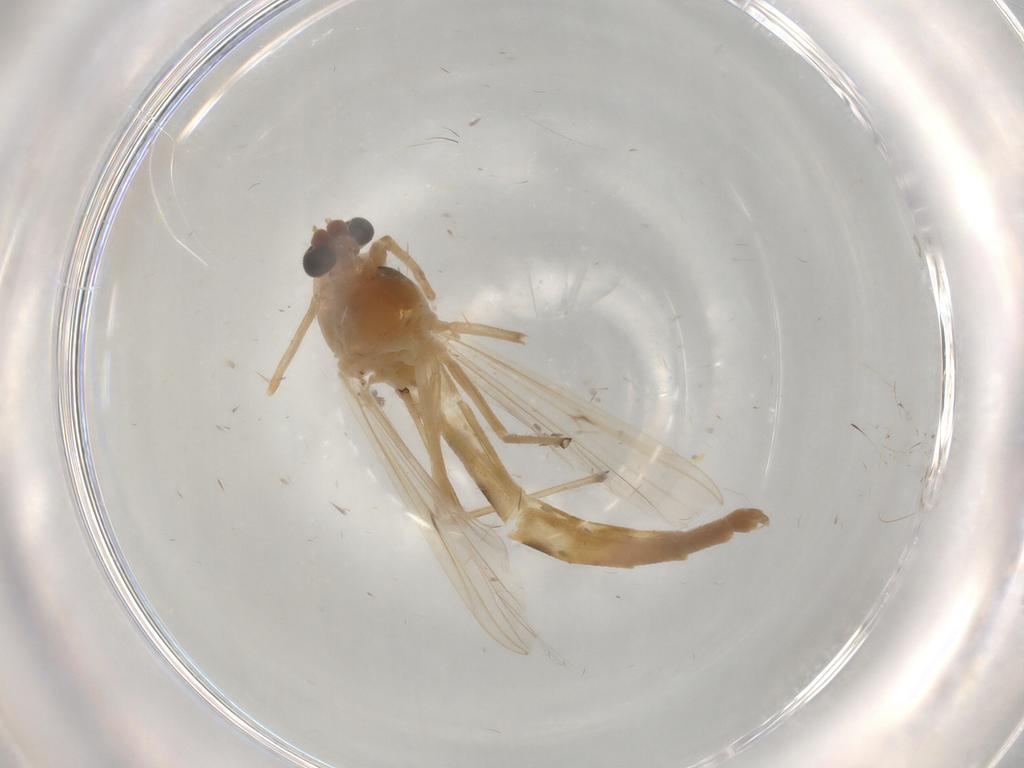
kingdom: Animalia
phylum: Arthropoda
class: Insecta
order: Diptera
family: Chironomidae
